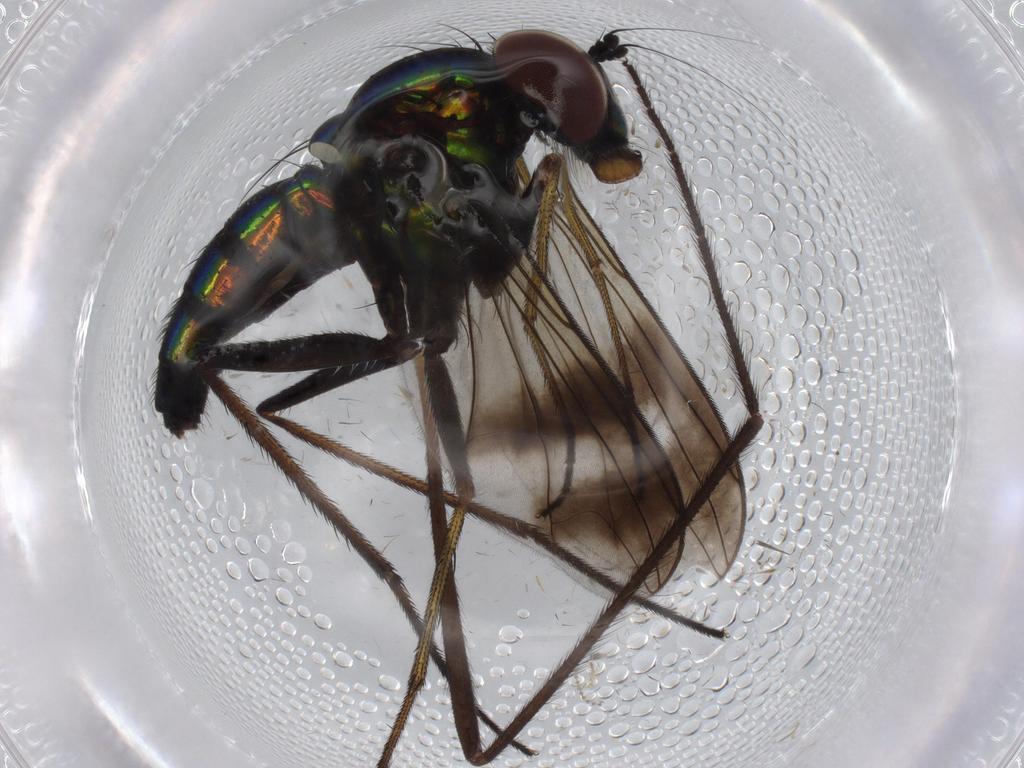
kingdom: Animalia
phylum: Arthropoda
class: Insecta
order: Diptera
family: Dolichopodidae
